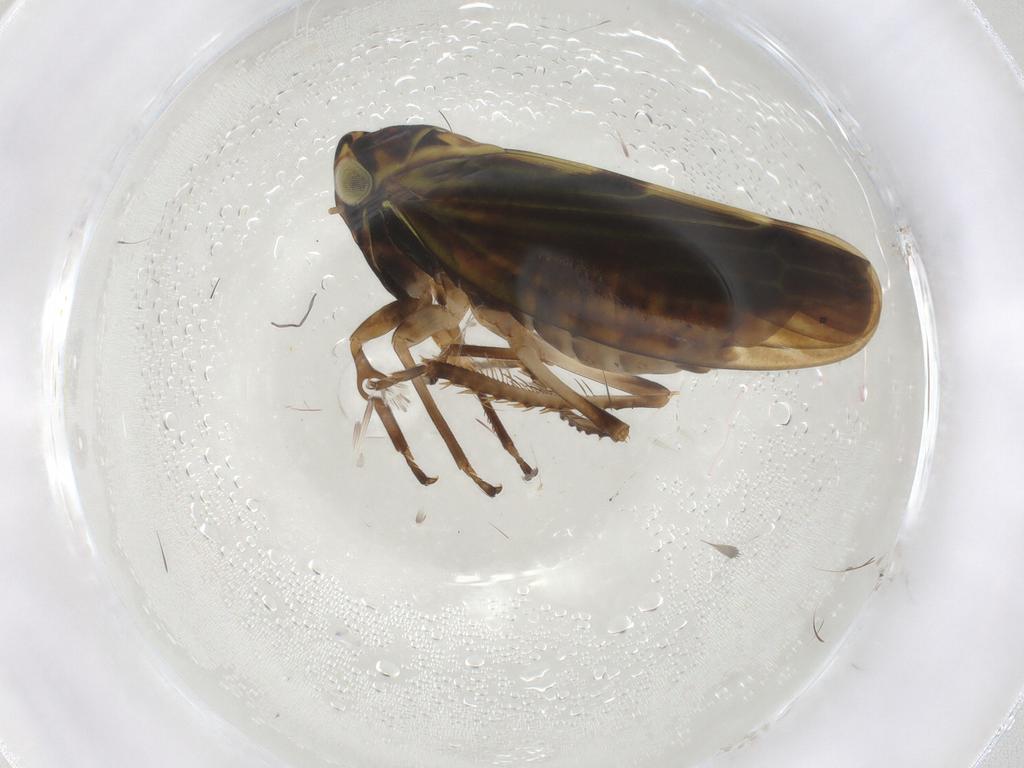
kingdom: Animalia
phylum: Arthropoda
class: Insecta
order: Hemiptera
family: Cicadellidae
